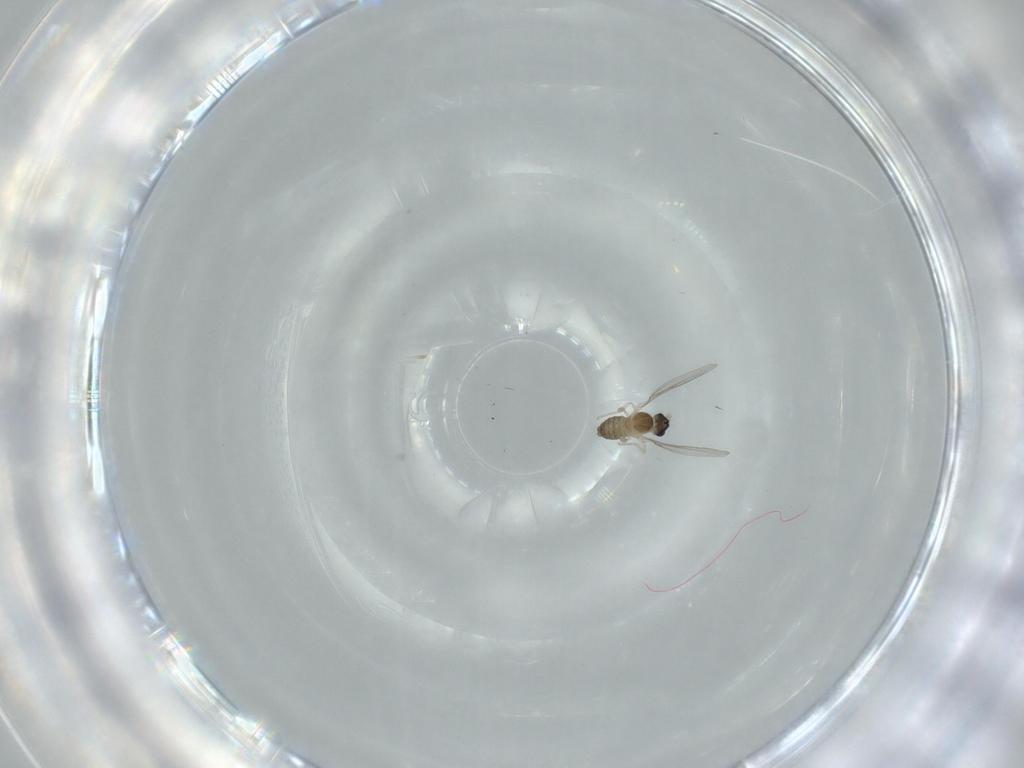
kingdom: Animalia
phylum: Arthropoda
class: Insecta
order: Diptera
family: Cecidomyiidae
